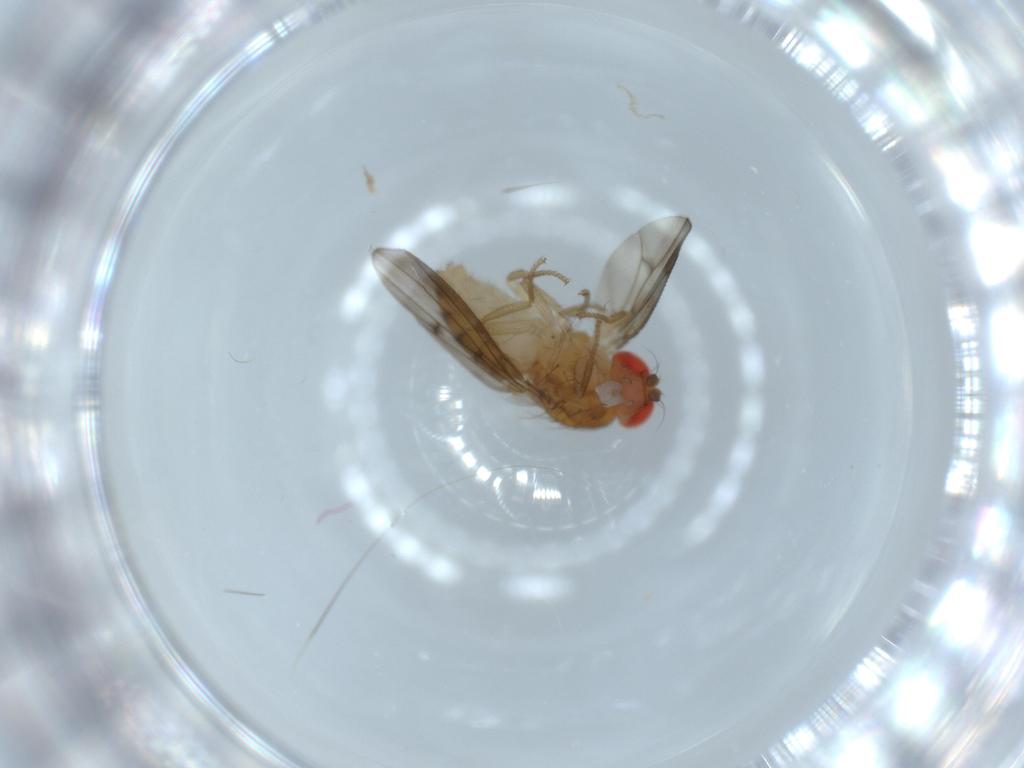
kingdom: Animalia
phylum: Arthropoda
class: Insecta
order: Diptera
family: Drosophilidae
